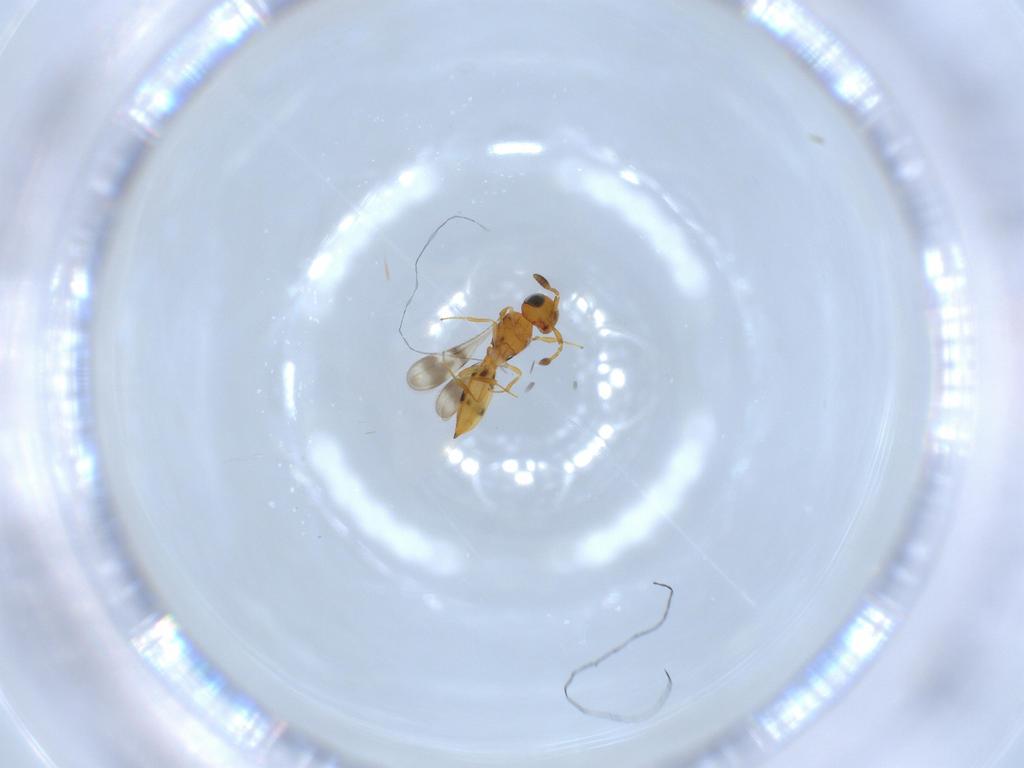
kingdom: Animalia
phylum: Arthropoda
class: Insecta
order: Hymenoptera
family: Scelionidae
